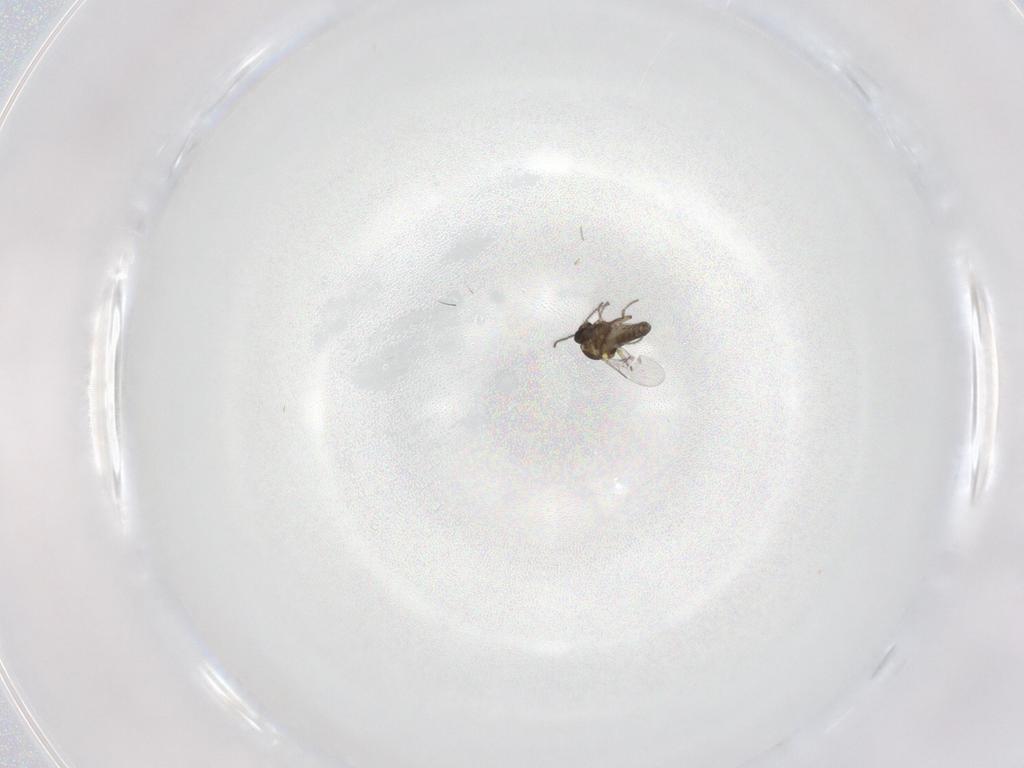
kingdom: Animalia
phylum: Arthropoda
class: Insecta
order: Diptera
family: Ceratopogonidae
